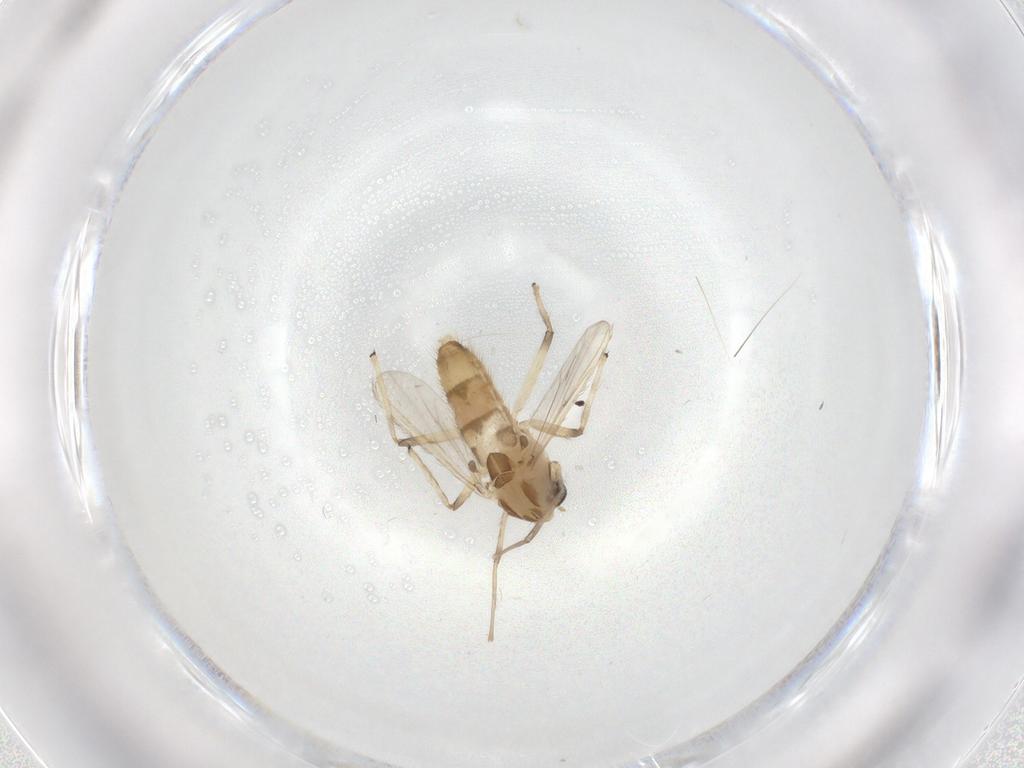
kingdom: Animalia
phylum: Arthropoda
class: Insecta
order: Diptera
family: Chironomidae
